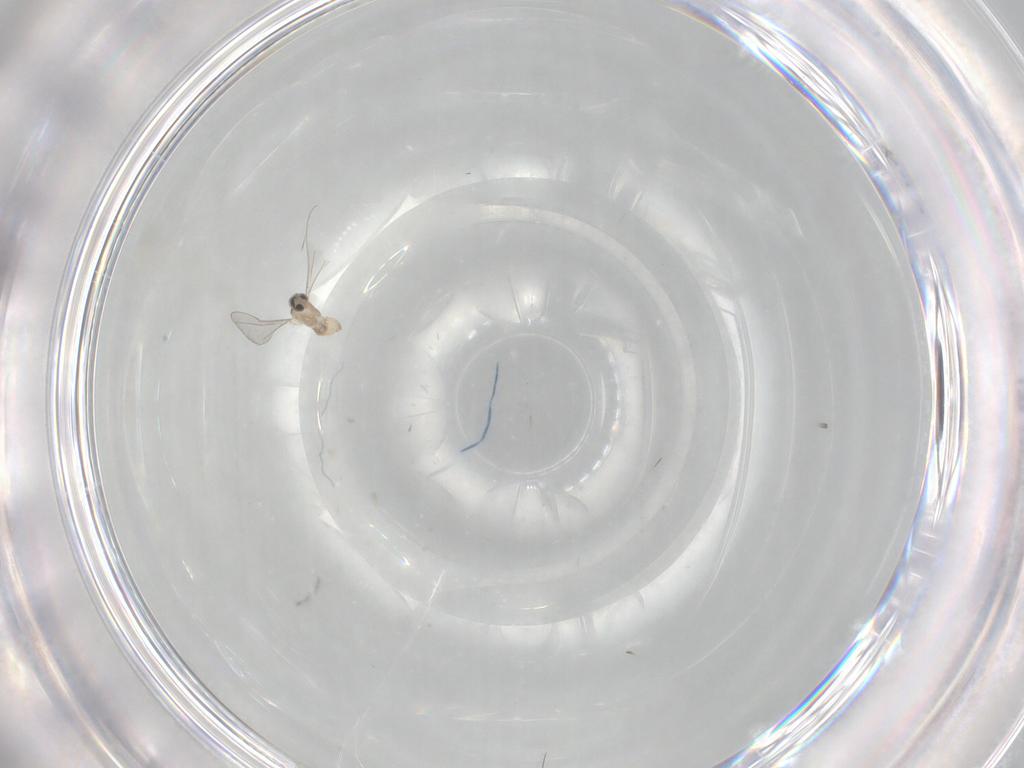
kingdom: Animalia
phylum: Arthropoda
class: Insecta
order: Diptera
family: Cecidomyiidae
